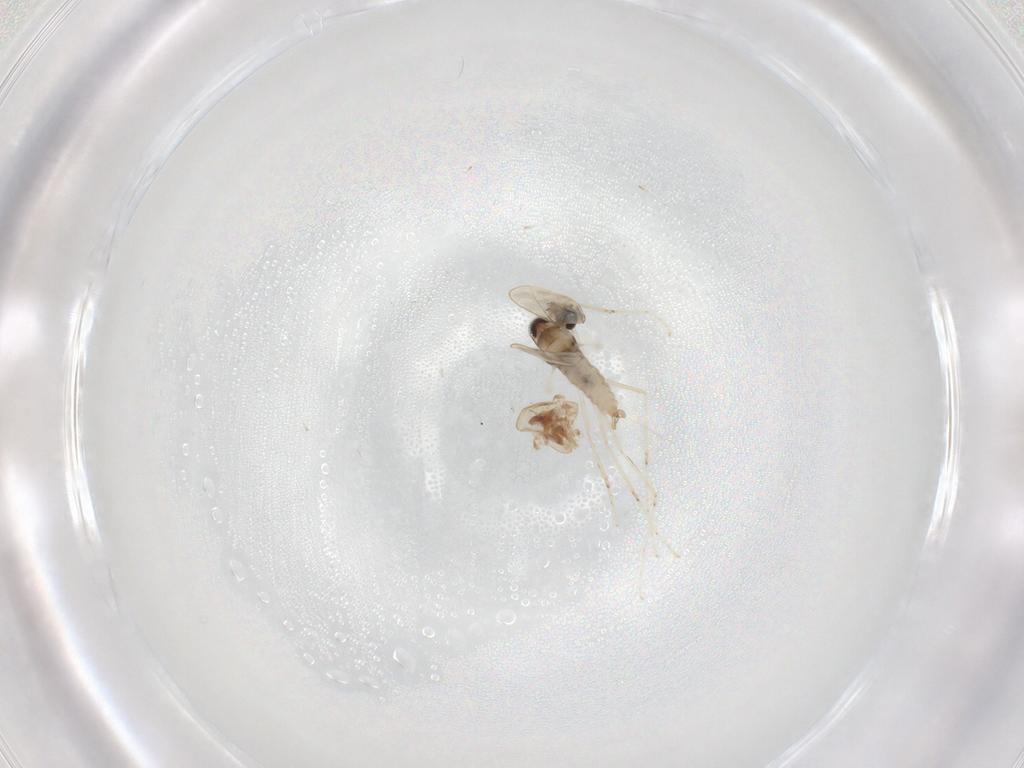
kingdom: Animalia
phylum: Arthropoda
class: Insecta
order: Diptera
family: Cecidomyiidae
